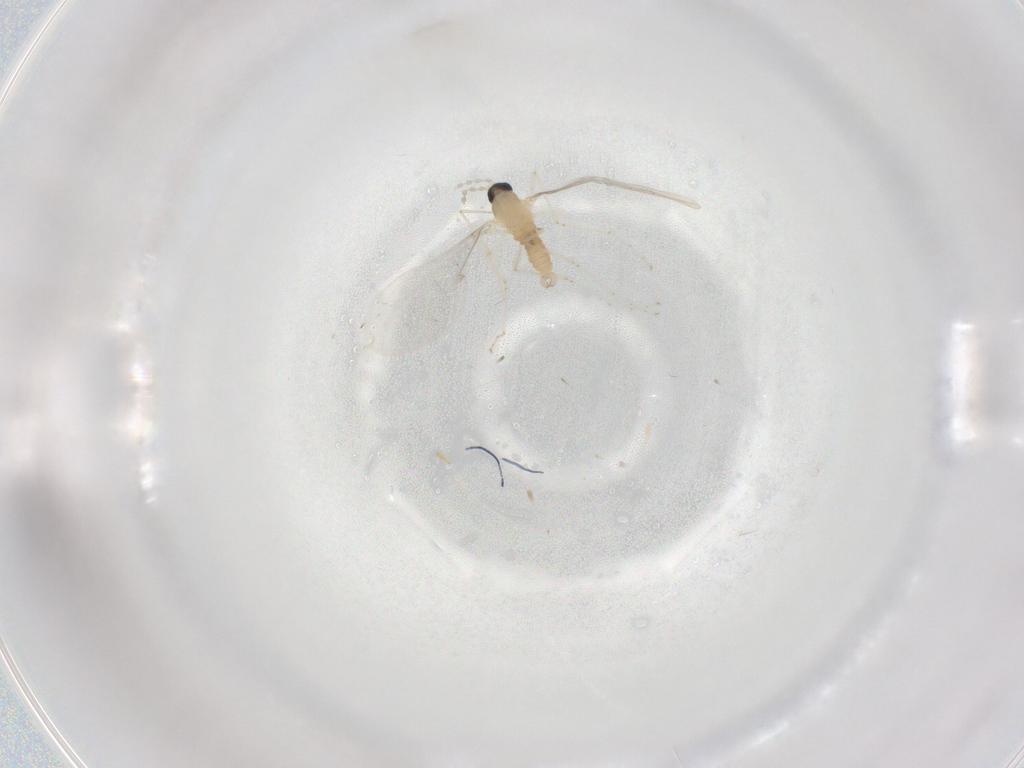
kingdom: Animalia
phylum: Arthropoda
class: Insecta
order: Diptera
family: Cecidomyiidae
